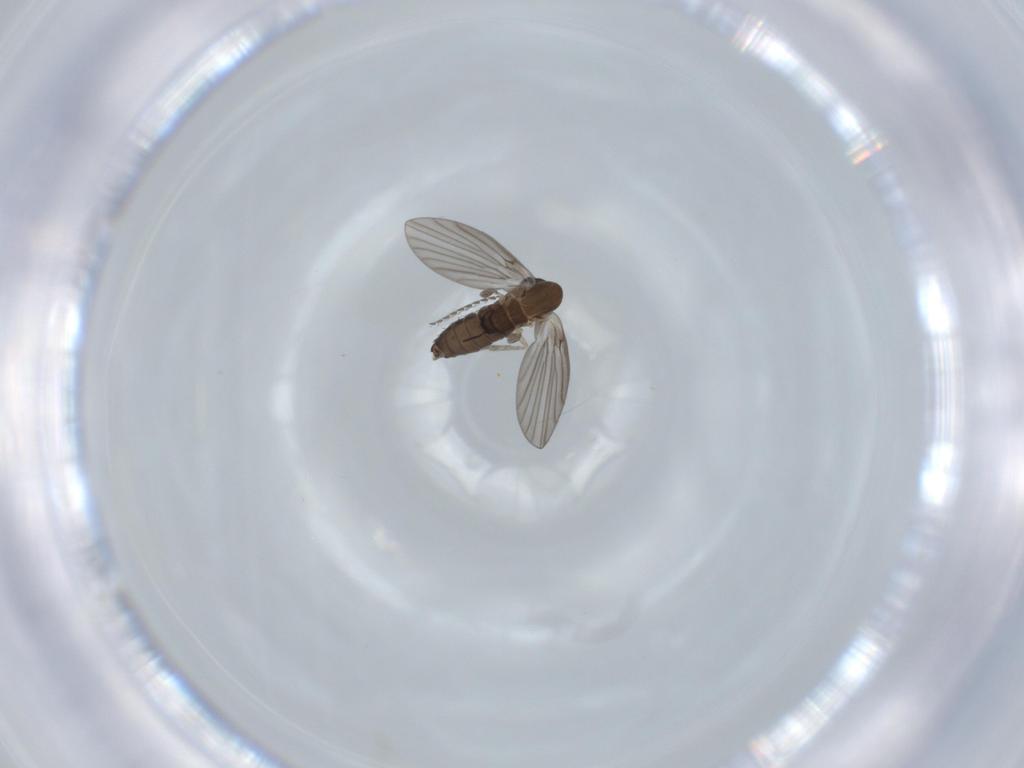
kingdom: Animalia
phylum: Arthropoda
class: Insecta
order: Diptera
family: Psychodidae
